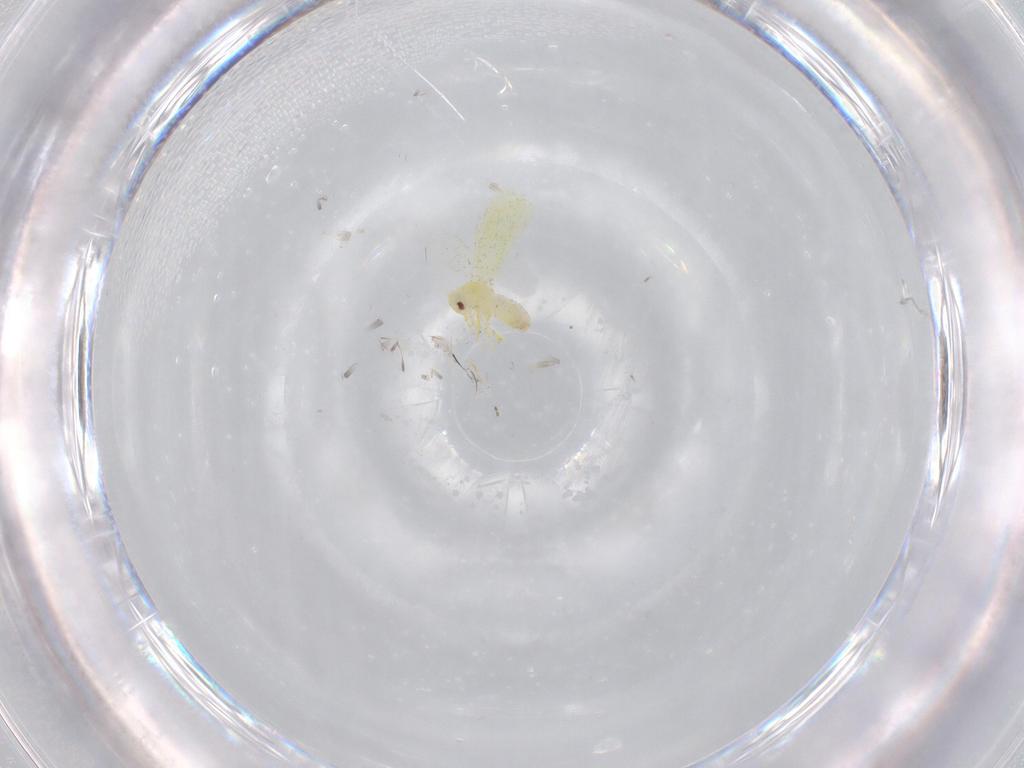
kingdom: Animalia
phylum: Arthropoda
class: Insecta
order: Hemiptera
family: Aleyrodidae
